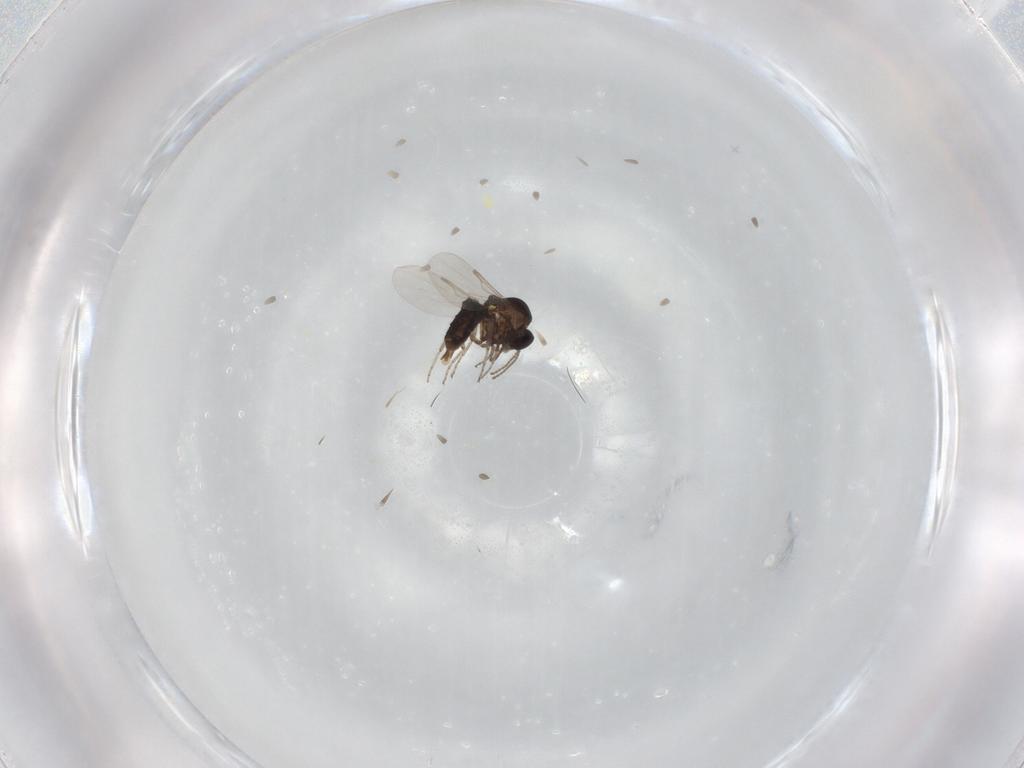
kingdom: Animalia
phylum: Arthropoda
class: Insecta
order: Diptera
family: Ceratopogonidae
